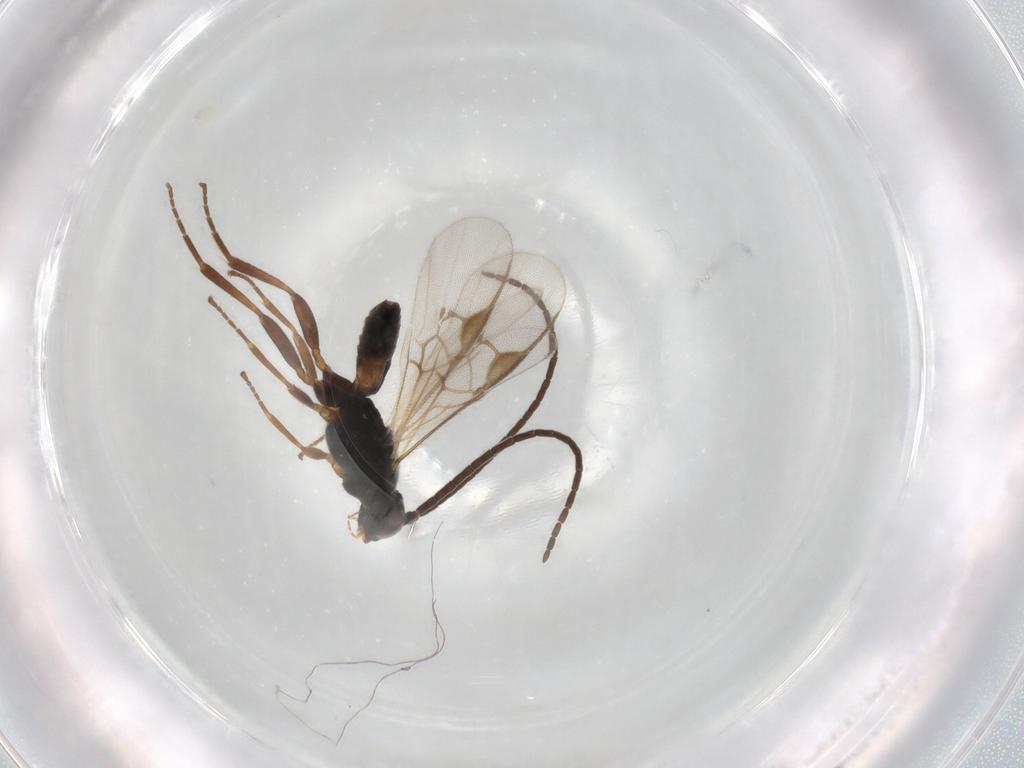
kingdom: Animalia
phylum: Arthropoda
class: Insecta
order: Hymenoptera
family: Braconidae
